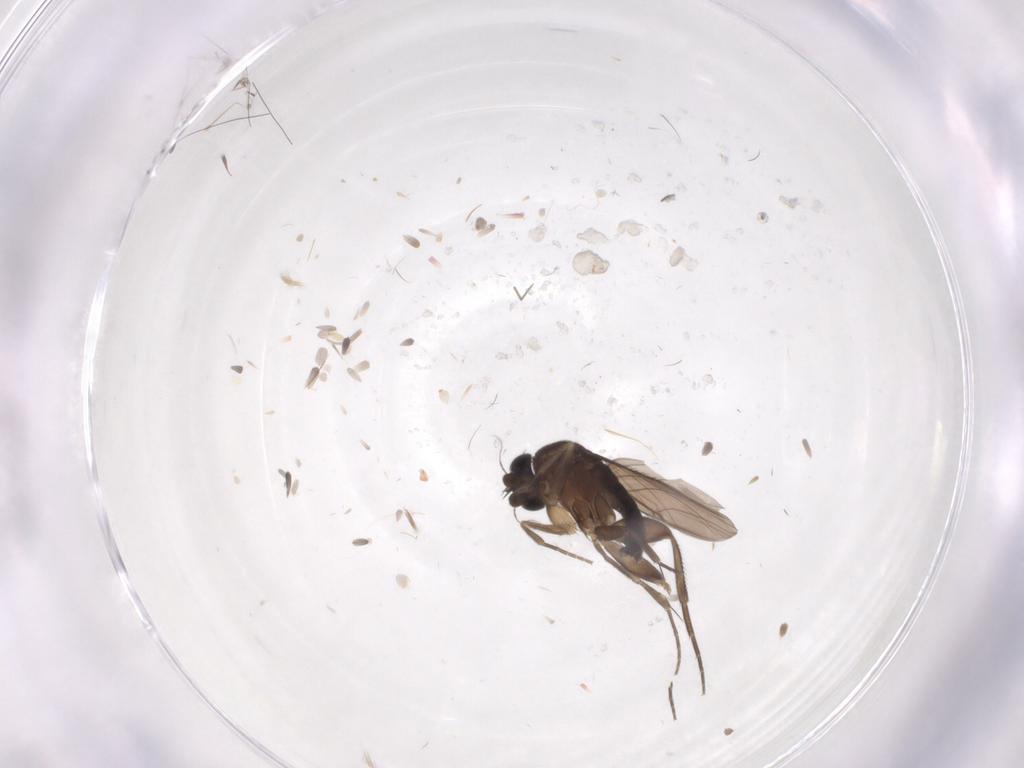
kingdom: Animalia
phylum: Arthropoda
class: Insecta
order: Diptera
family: Phoridae
